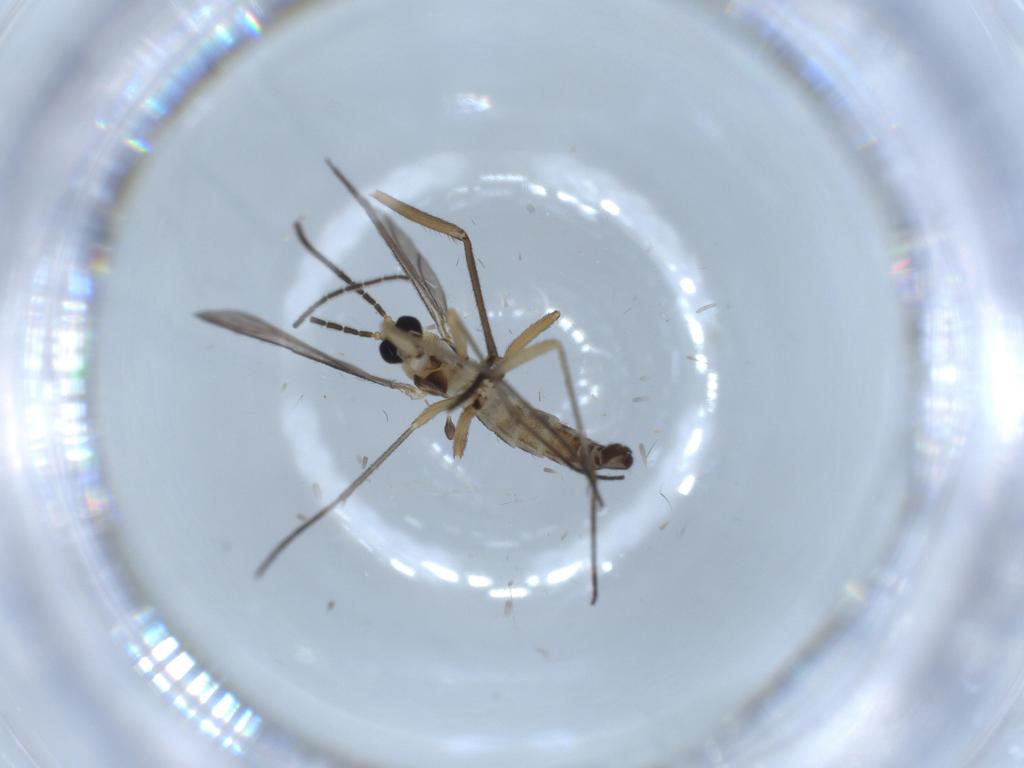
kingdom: Animalia
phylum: Arthropoda
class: Insecta
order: Diptera
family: Sciaridae
